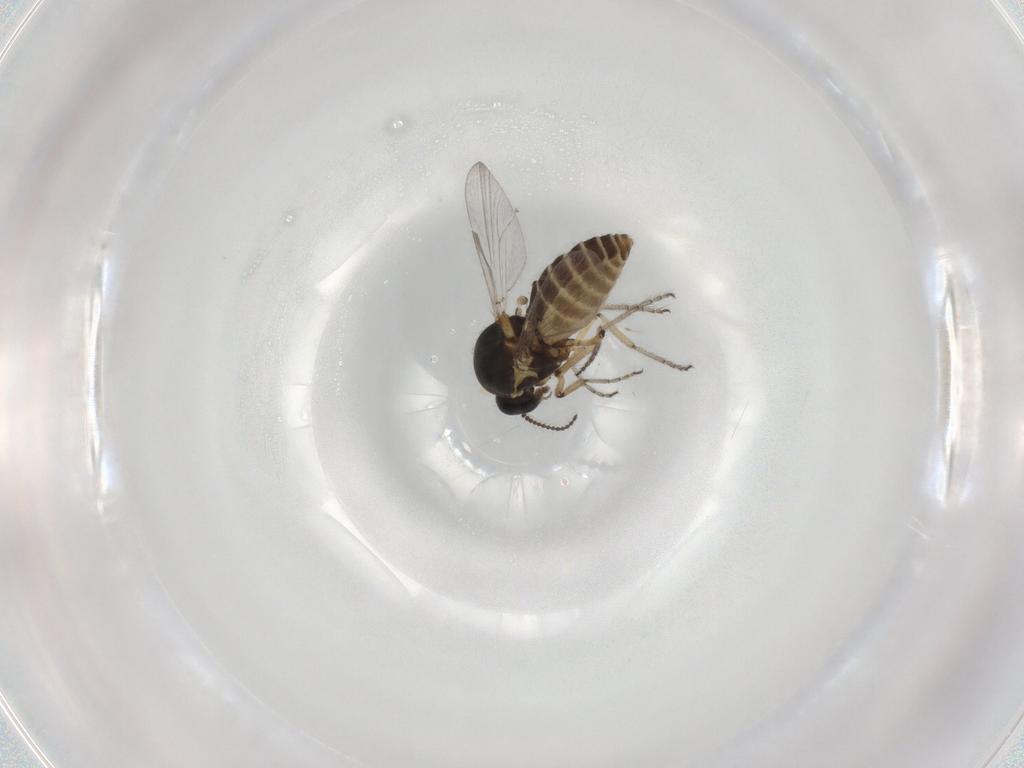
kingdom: Animalia
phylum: Arthropoda
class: Insecta
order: Diptera
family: Ceratopogonidae
